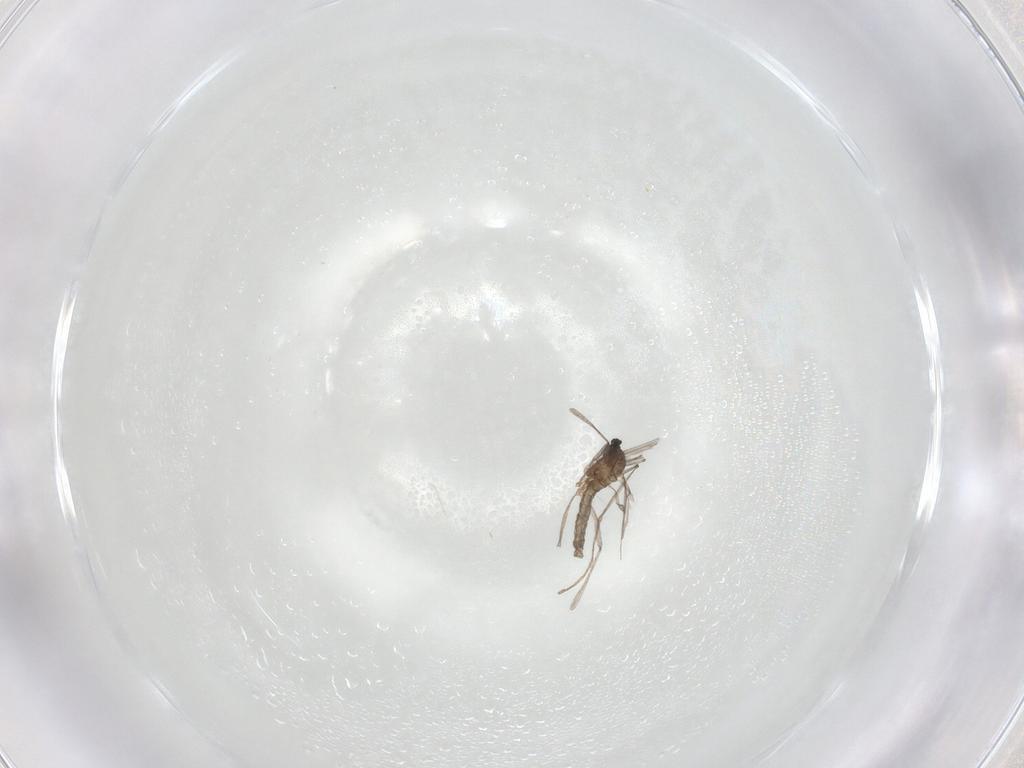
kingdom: Animalia
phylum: Arthropoda
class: Insecta
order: Diptera
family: Cecidomyiidae
